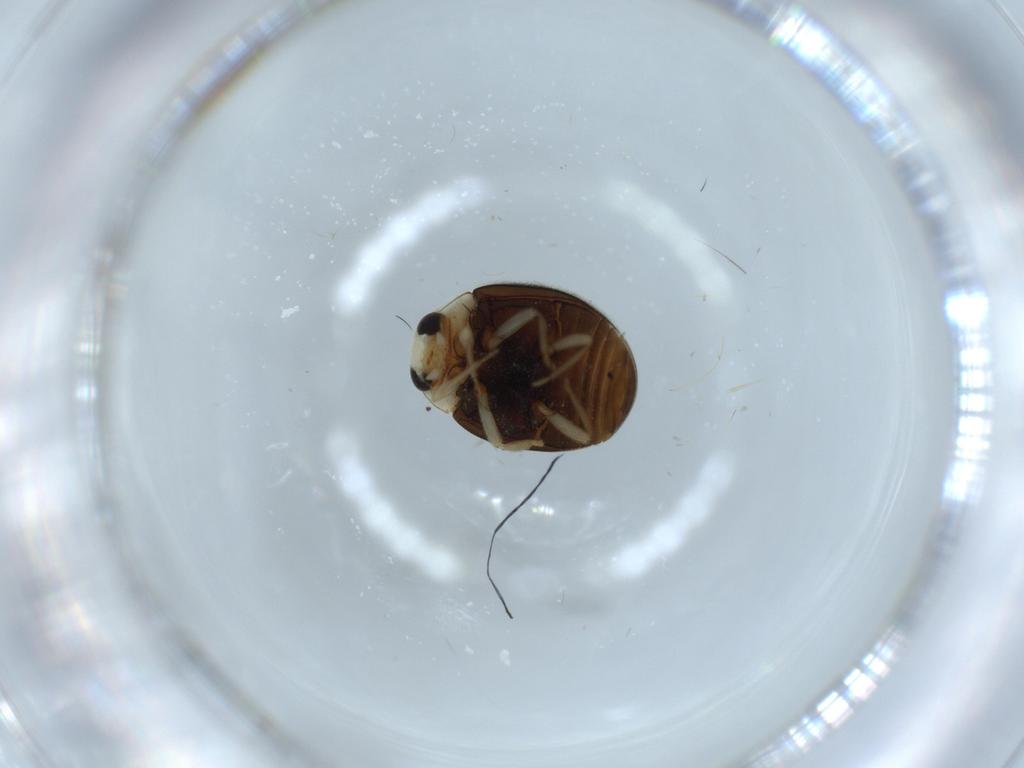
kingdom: Animalia
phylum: Arthropoda
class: Insecta
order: Coleoptera
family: Coccinellidae
